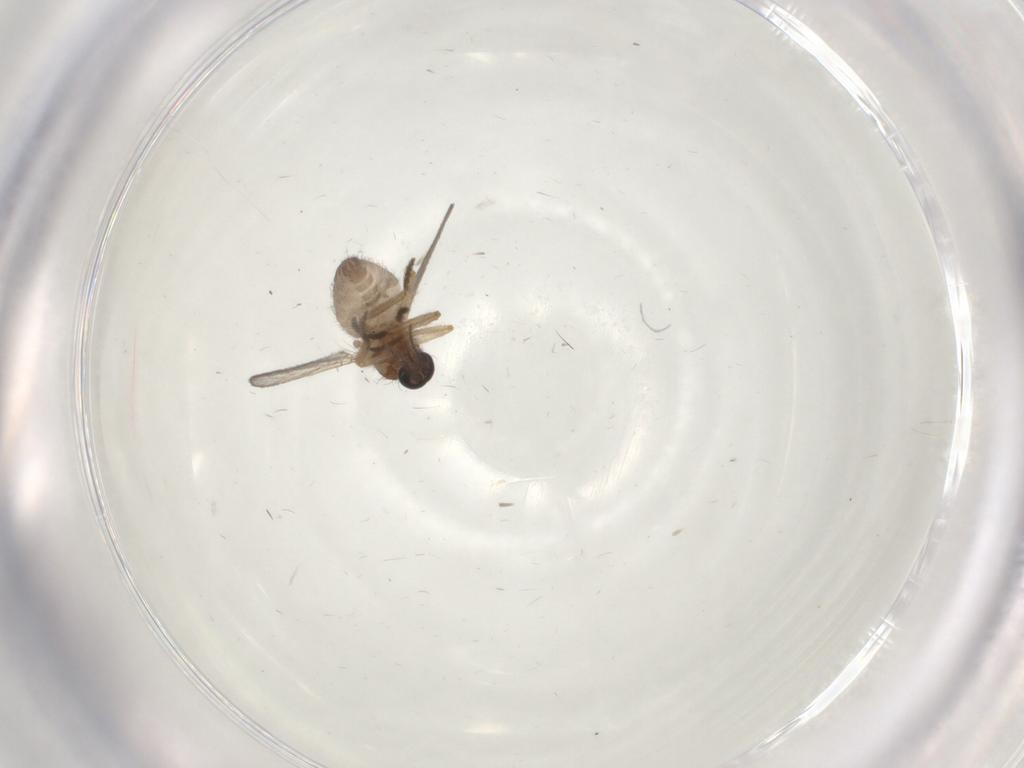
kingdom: Animalia
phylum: Arthropoda
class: Insecta
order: Diptera
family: Ceratopogonidae
